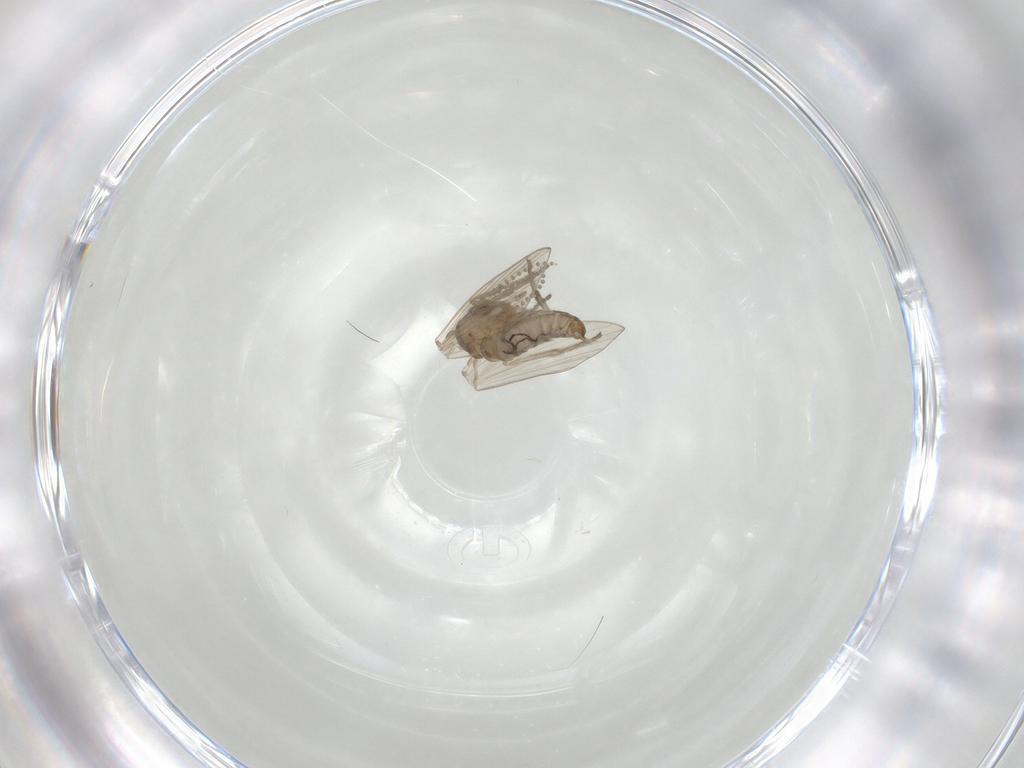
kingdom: Animalia
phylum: Arthropoda
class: Insecta
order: Diptera
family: Psychodidae
